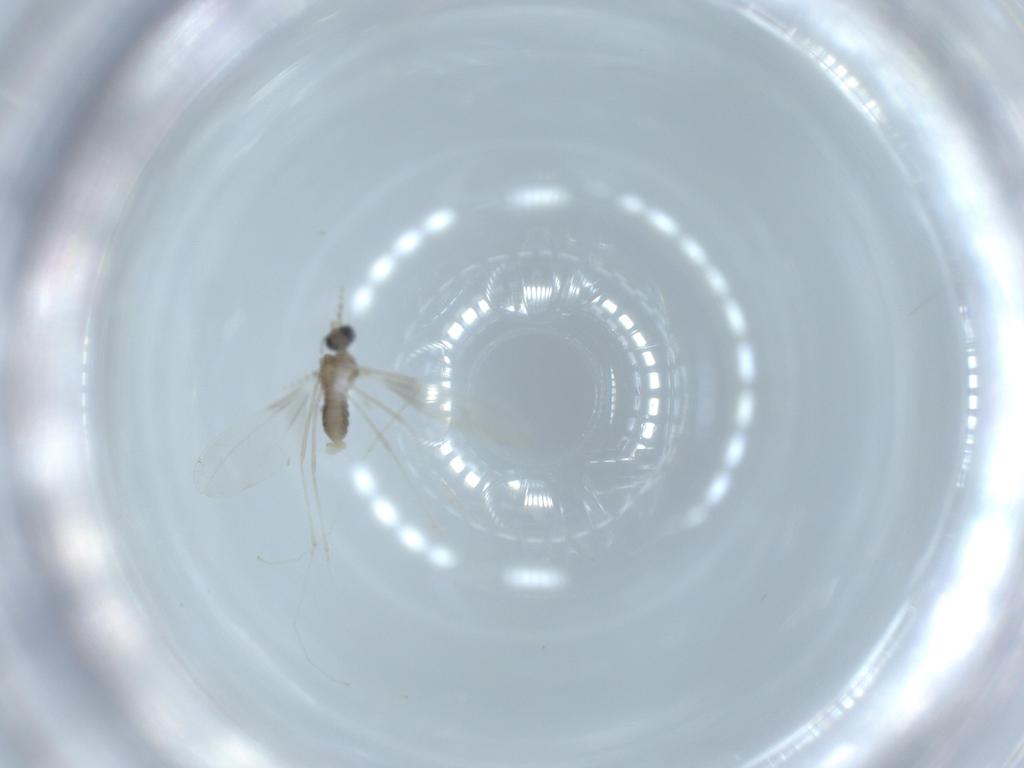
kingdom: Animalia
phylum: Arthropoda
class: Insecta
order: Diptera
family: Cecidomyiidae
